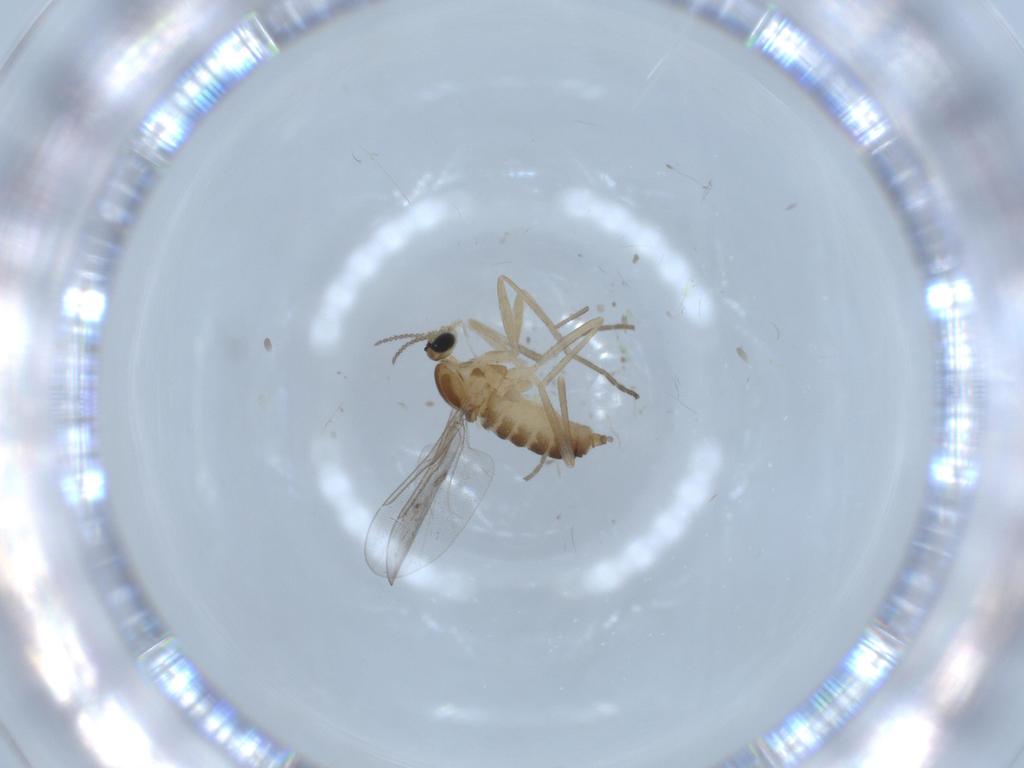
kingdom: Animalia
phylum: Arthropoda
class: Insecta
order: Diptera
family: Cecidomyiidae
